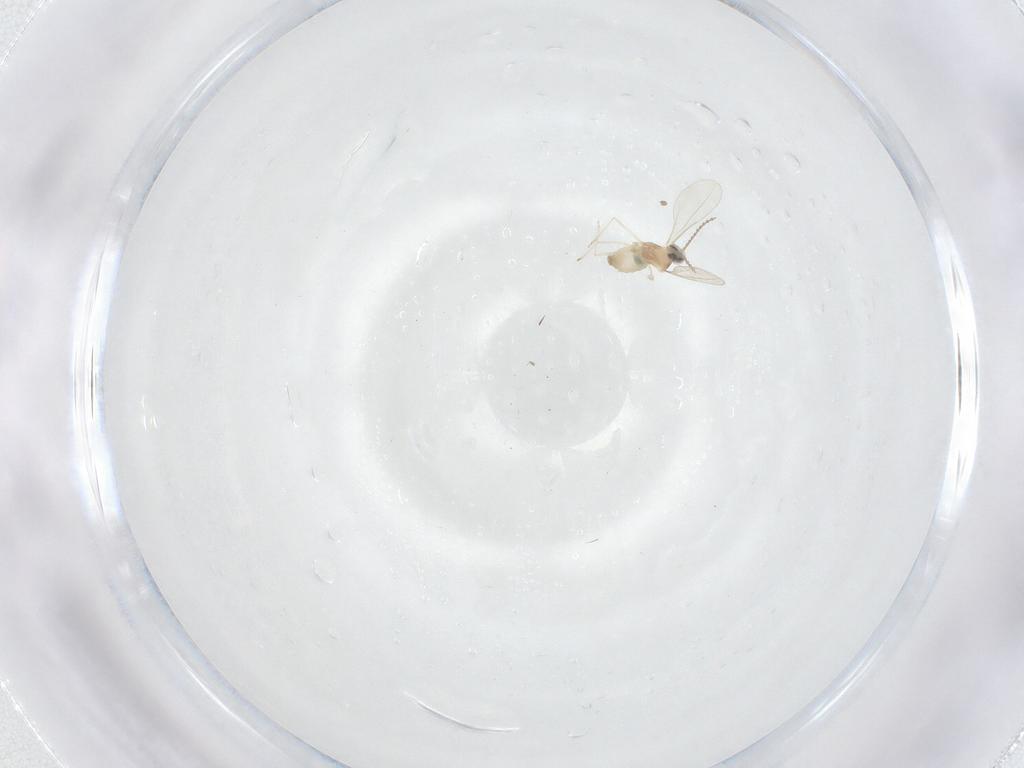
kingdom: Animalia
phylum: Arthropoda
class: Insecta
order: Diptera
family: Cecidomyiidae
